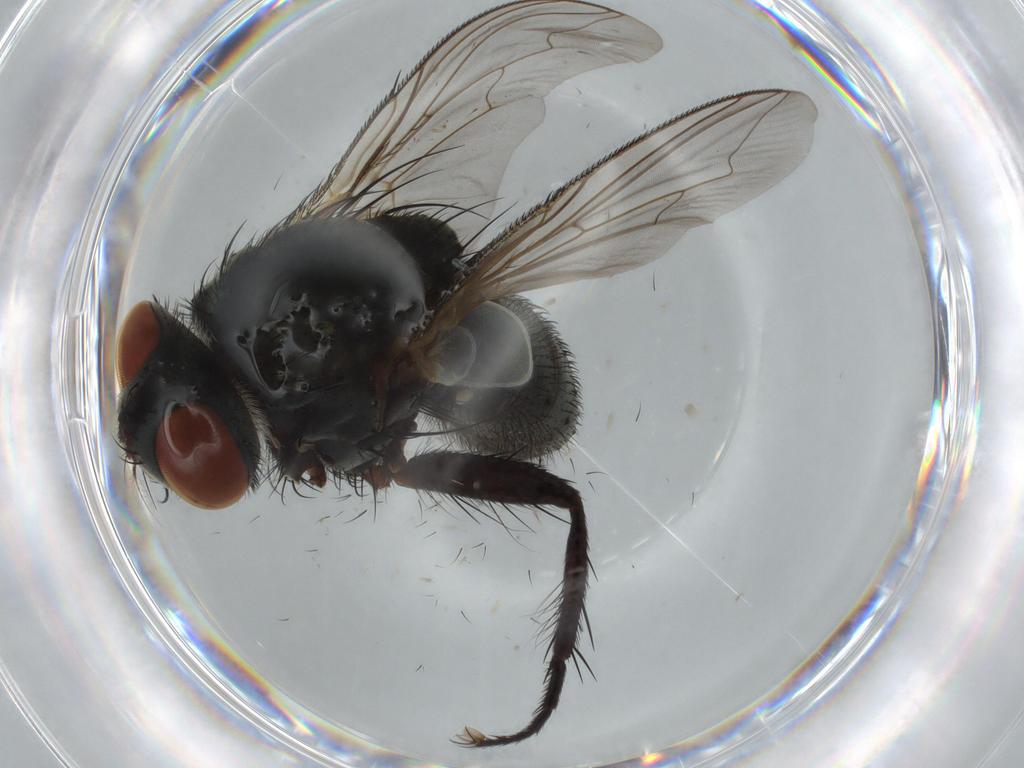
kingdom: Animalia
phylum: Arthropoda
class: Insecta
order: Diptera
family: Sarcophagidae
